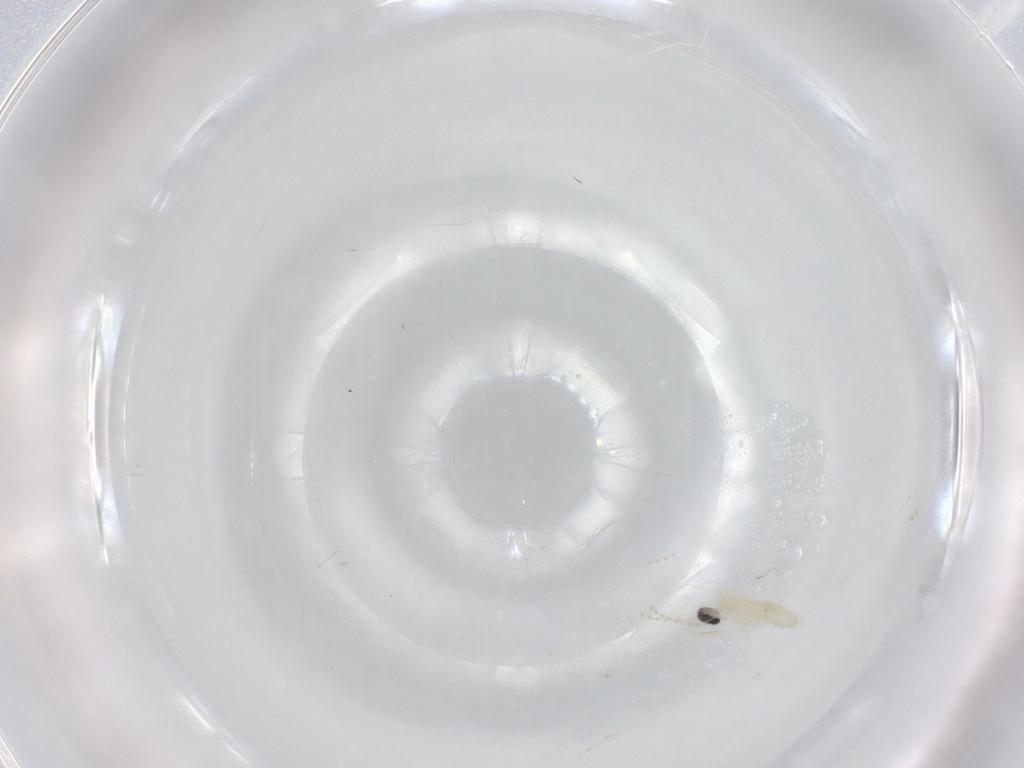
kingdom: Animalia
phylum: Arthropoda
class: Insecta
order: Diptera
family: Cecidomyiidae
